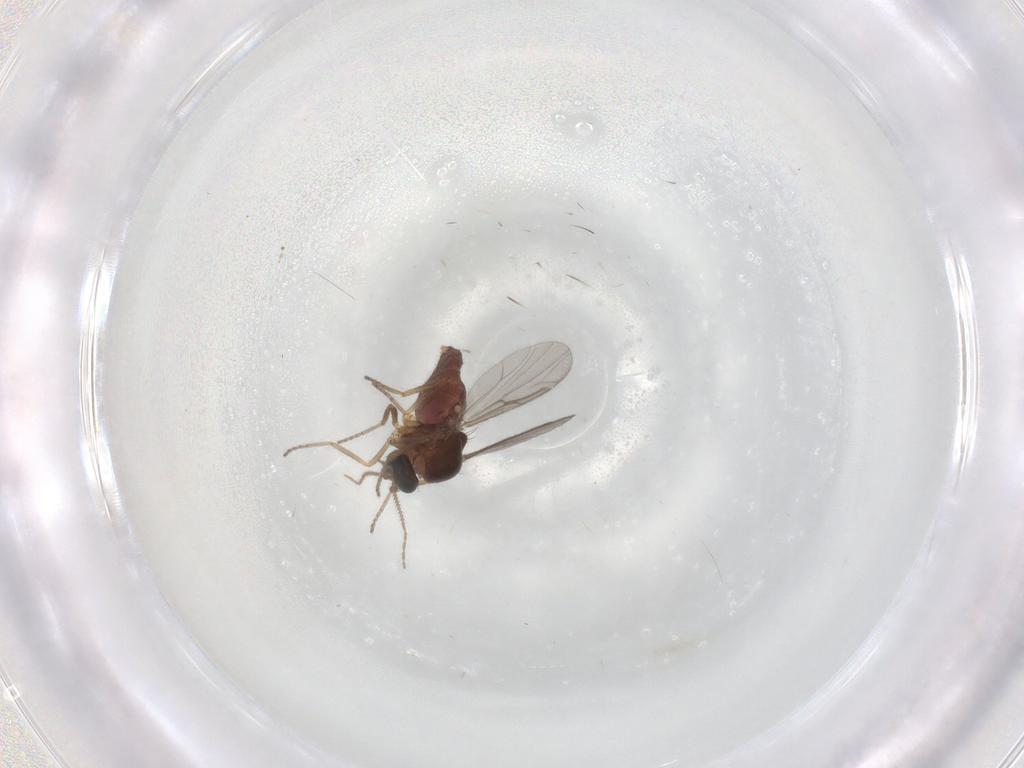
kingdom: Animalia
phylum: Arthropoda
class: Insecta
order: Diptera
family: Ceratopogonidae
